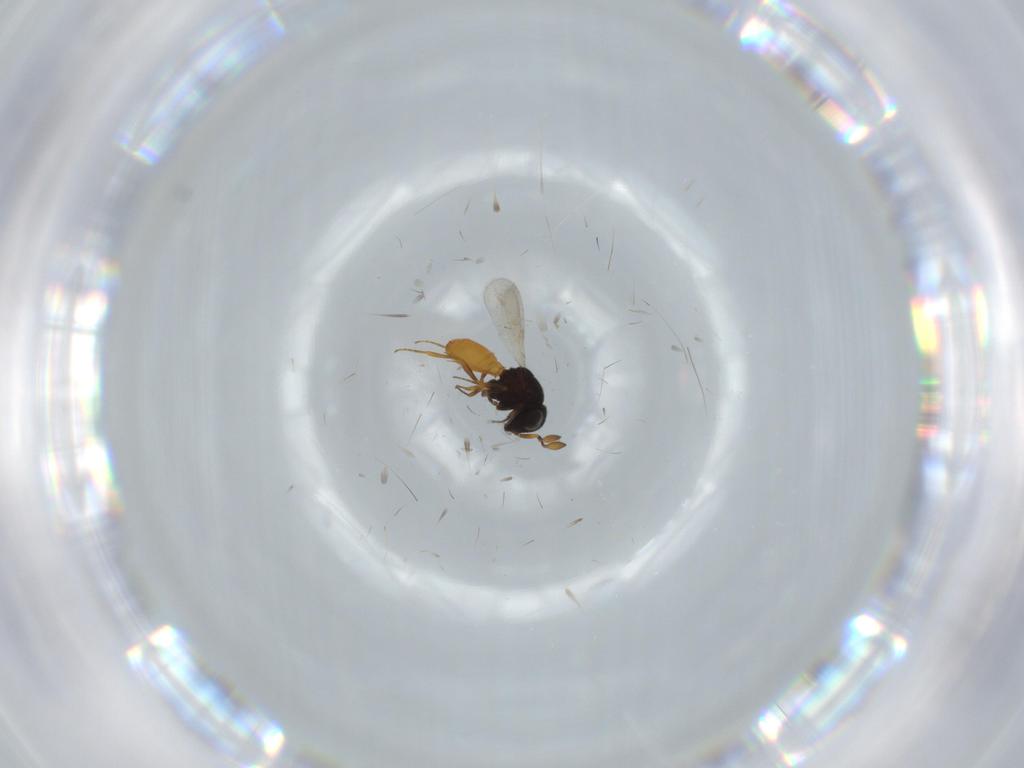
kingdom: Animalia
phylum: Arthropoda
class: Insecta
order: Hymenoptera
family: Scelionidae
